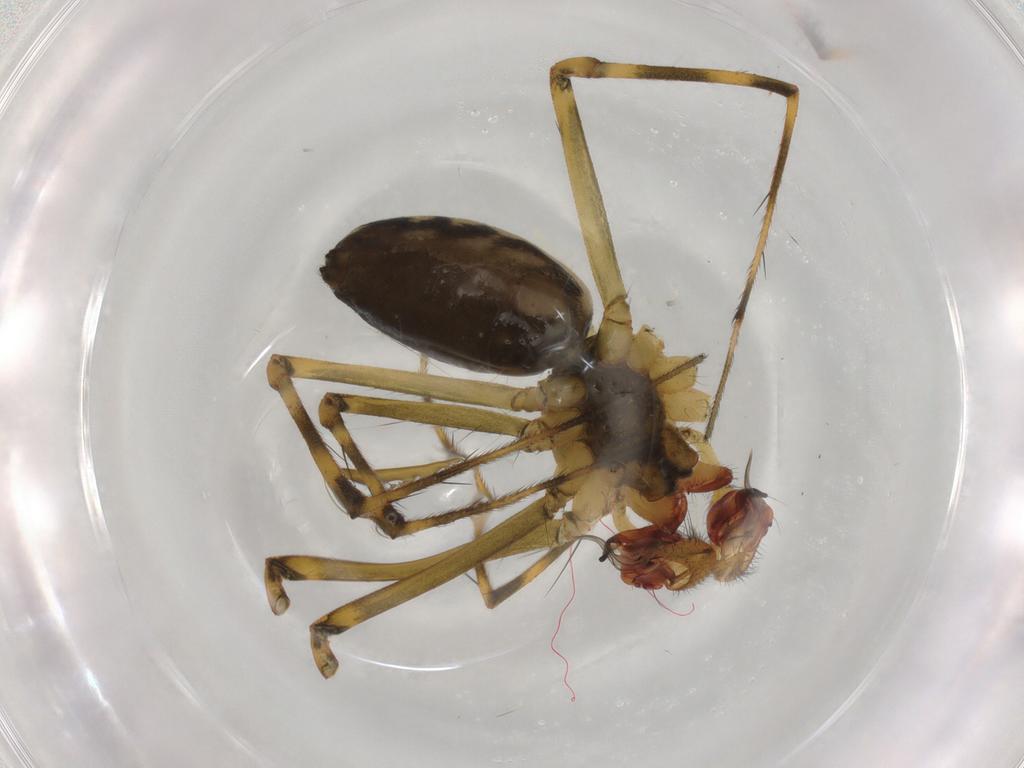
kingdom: Animalia
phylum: Arthropoda
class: Arachnida
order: Araneae
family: Linyphiidae
